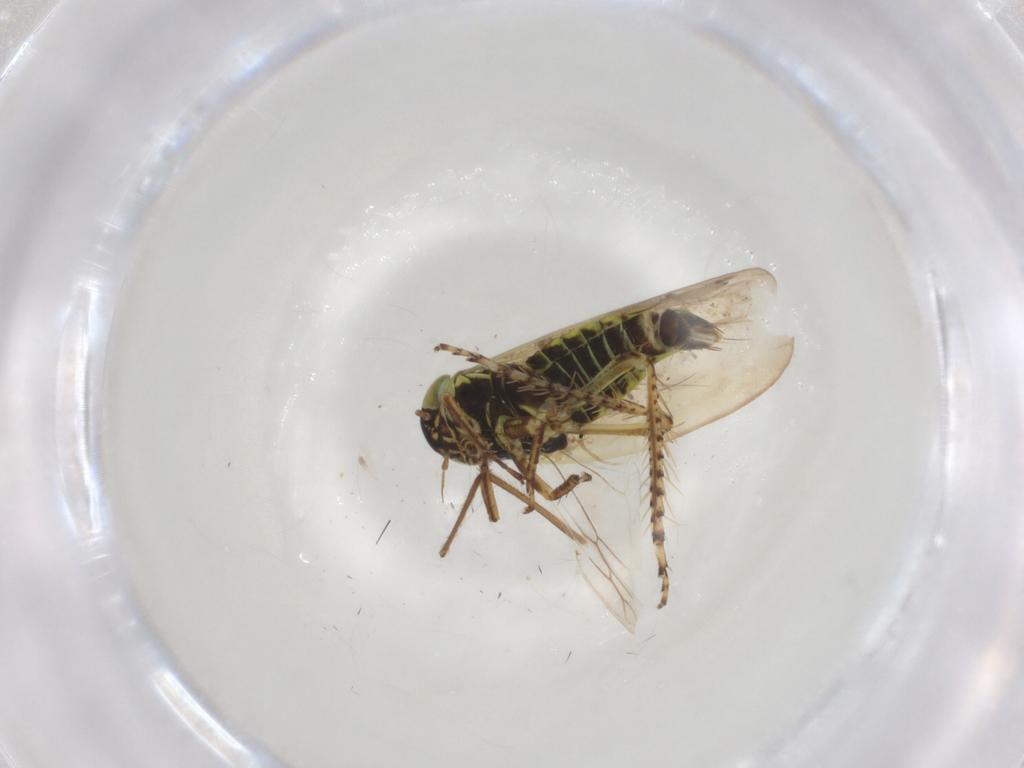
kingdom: Animalia
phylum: Arthropoda
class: Insecta
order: Hemiptera
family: Cicadellidae
